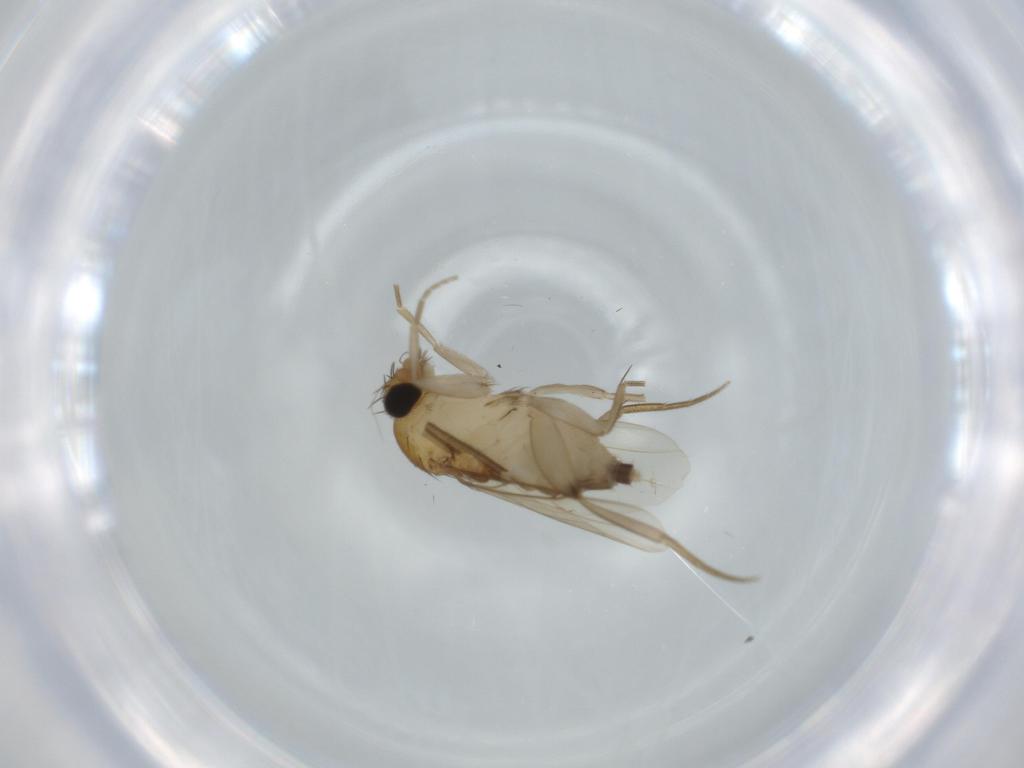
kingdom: Animalia
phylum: Arthropoda
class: Insecta
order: Diptera
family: Phoridae
